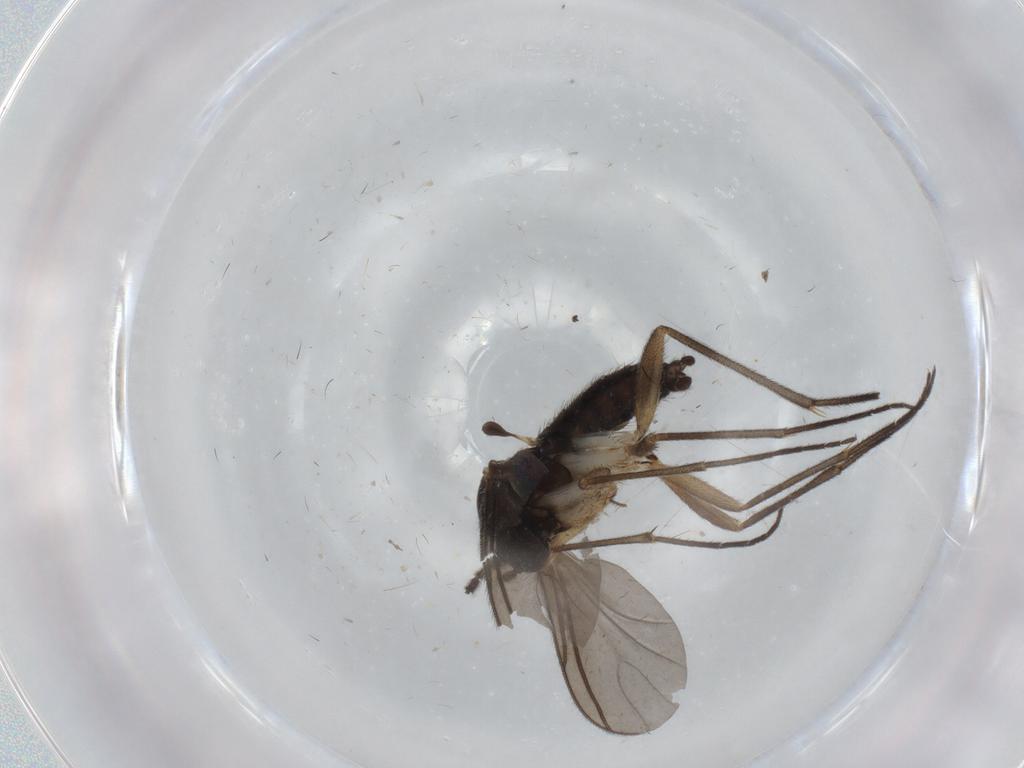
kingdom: Animalia
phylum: Arthropoda
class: Insecta
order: Diptera
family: Sciaridae
